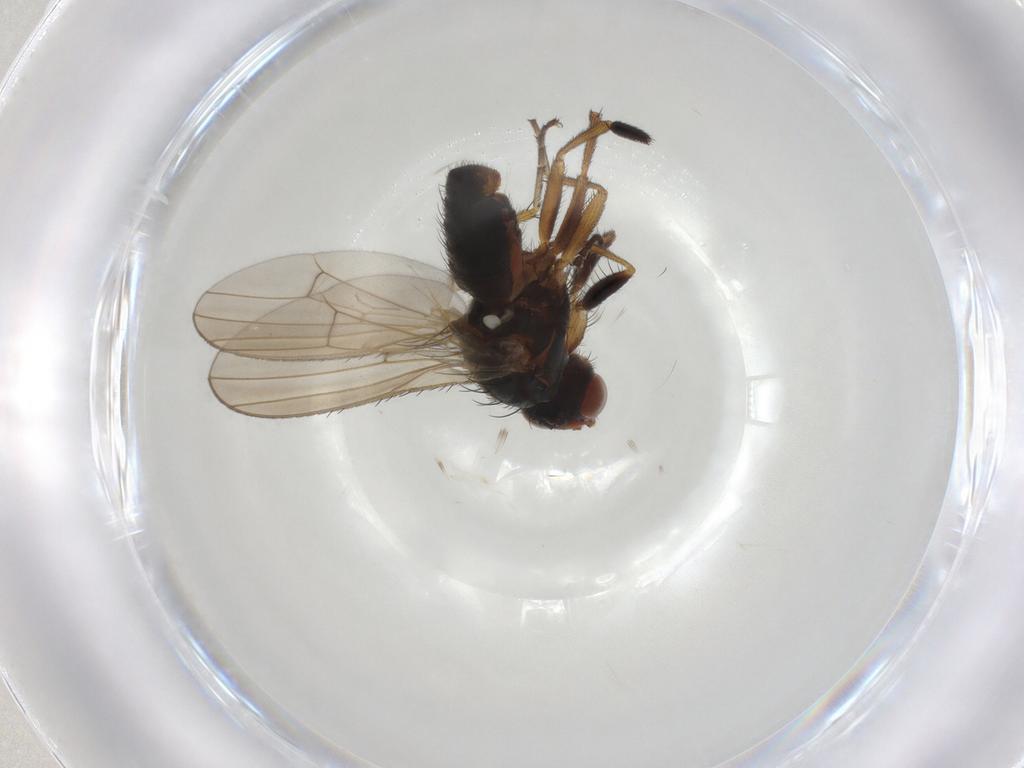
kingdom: Animalia
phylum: Arthropoda
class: Insecta
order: Diptera
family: Heleomyzidae
